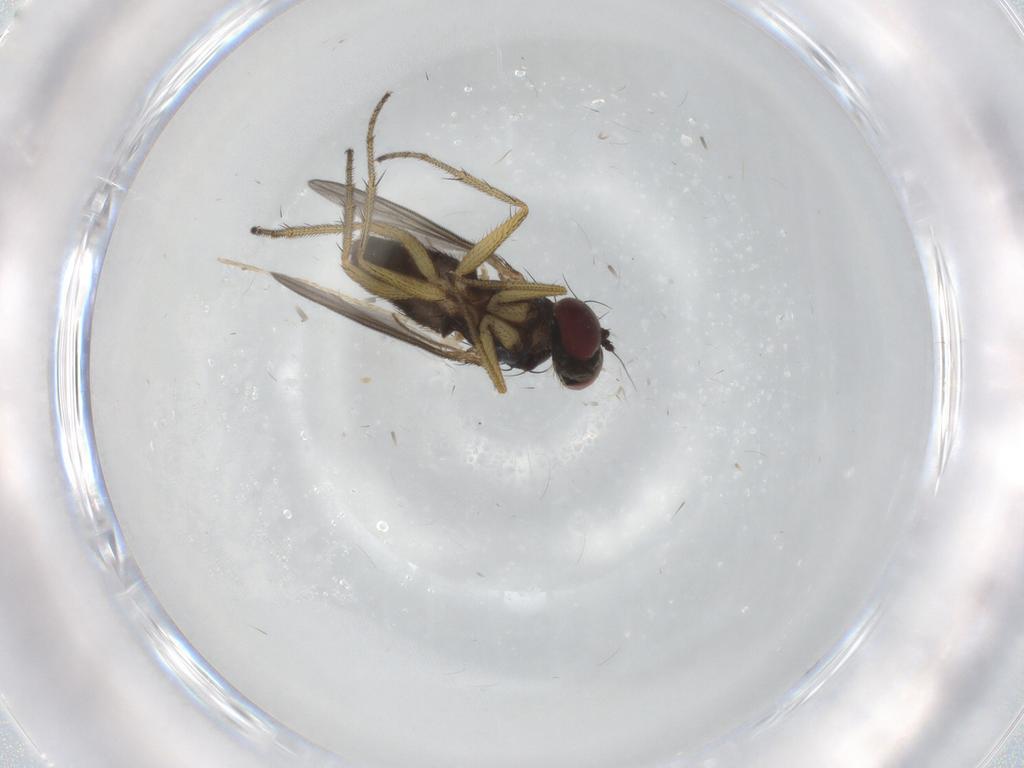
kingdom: Animalia
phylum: Arthropoda
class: Insecta
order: Diptera
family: Dolichopodidae
